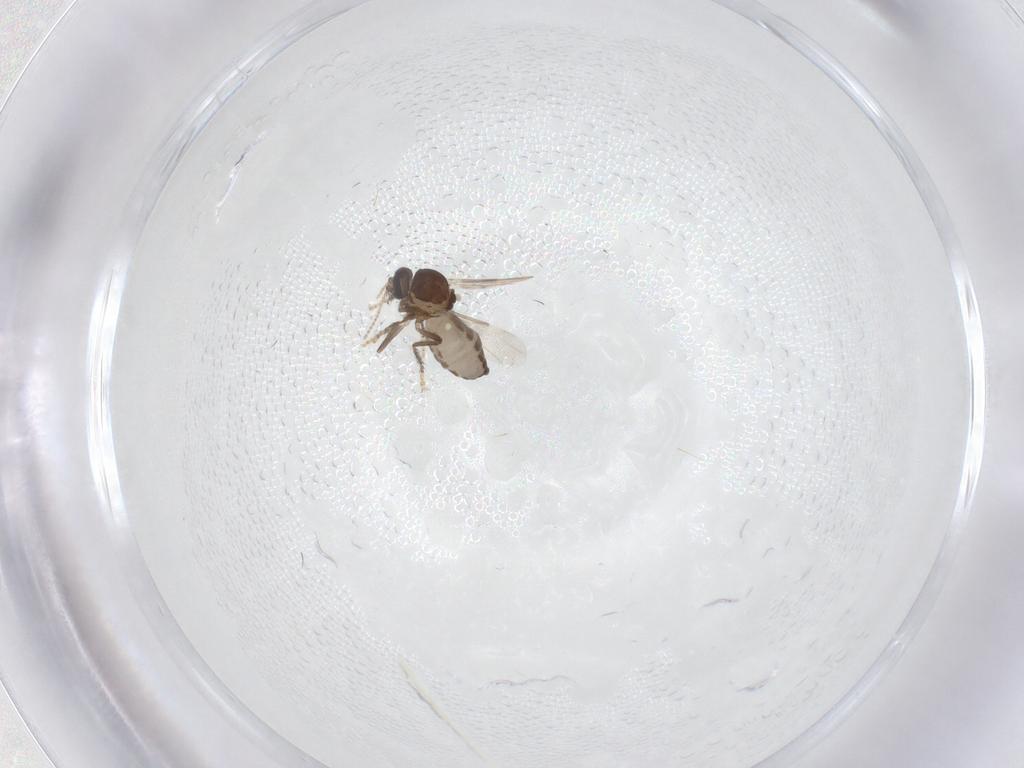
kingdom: Animalia
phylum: Arthropoda
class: Insecta
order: Diptera
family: Ceratopogonidae
